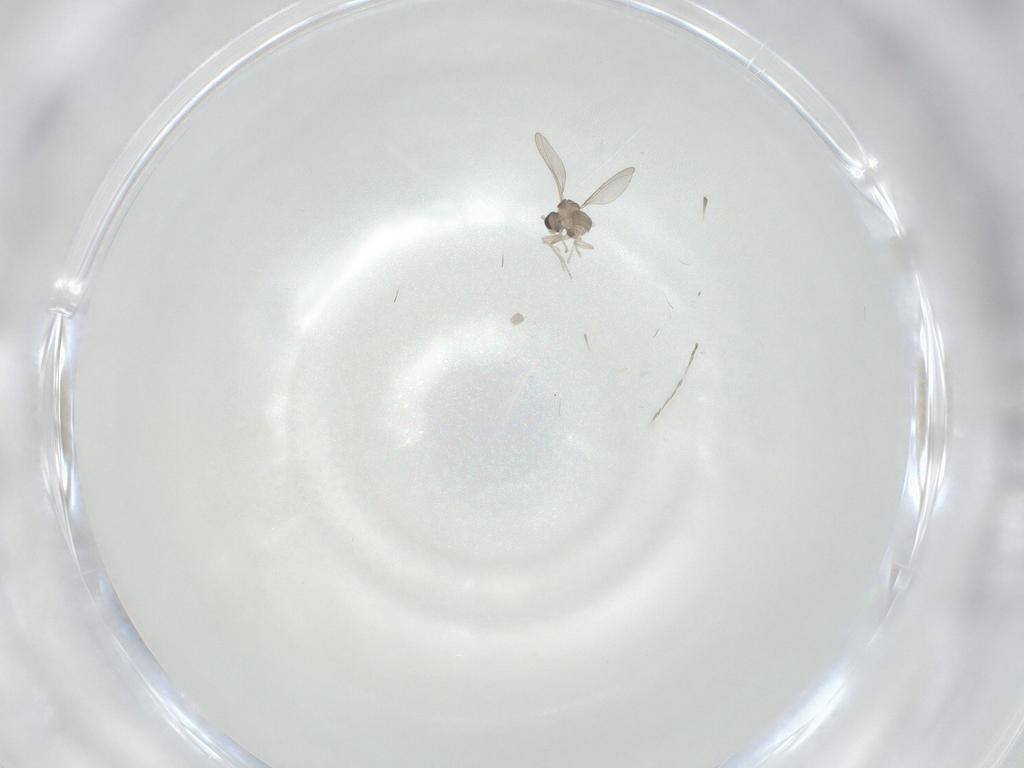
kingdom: Animalia
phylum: Arthropoda
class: Insecta
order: Diptera
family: Cecidomyiidae
